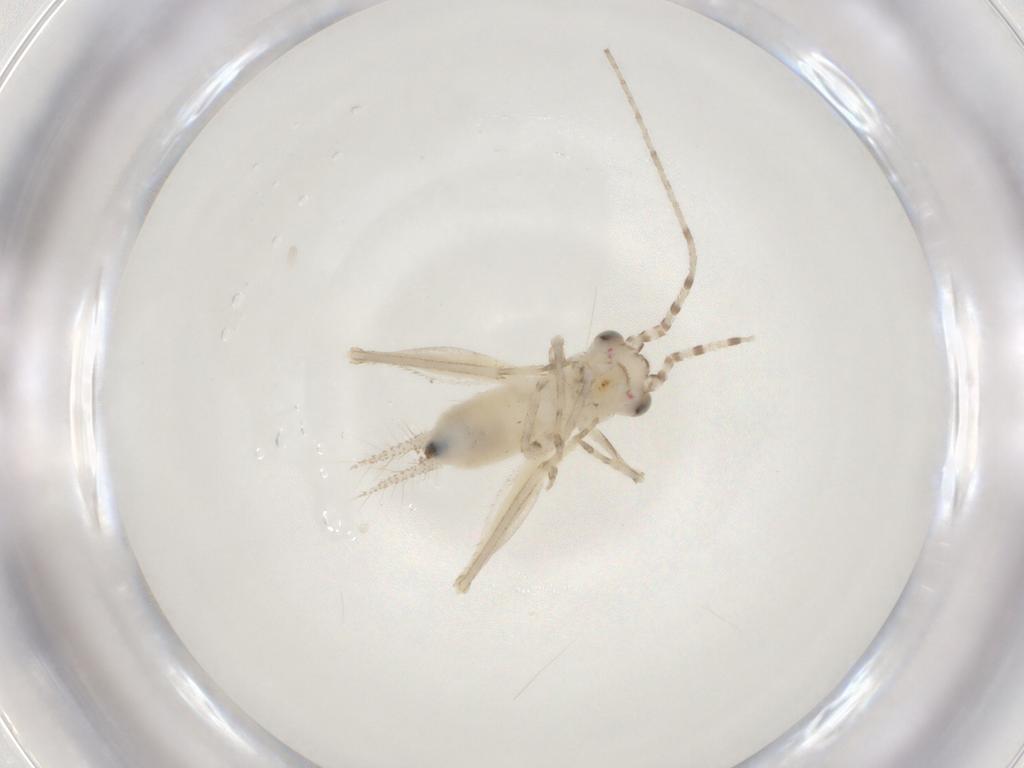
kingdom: Animalia
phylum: Arthropoda
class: Insecta
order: Orthoptera
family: Trigonidiidae
